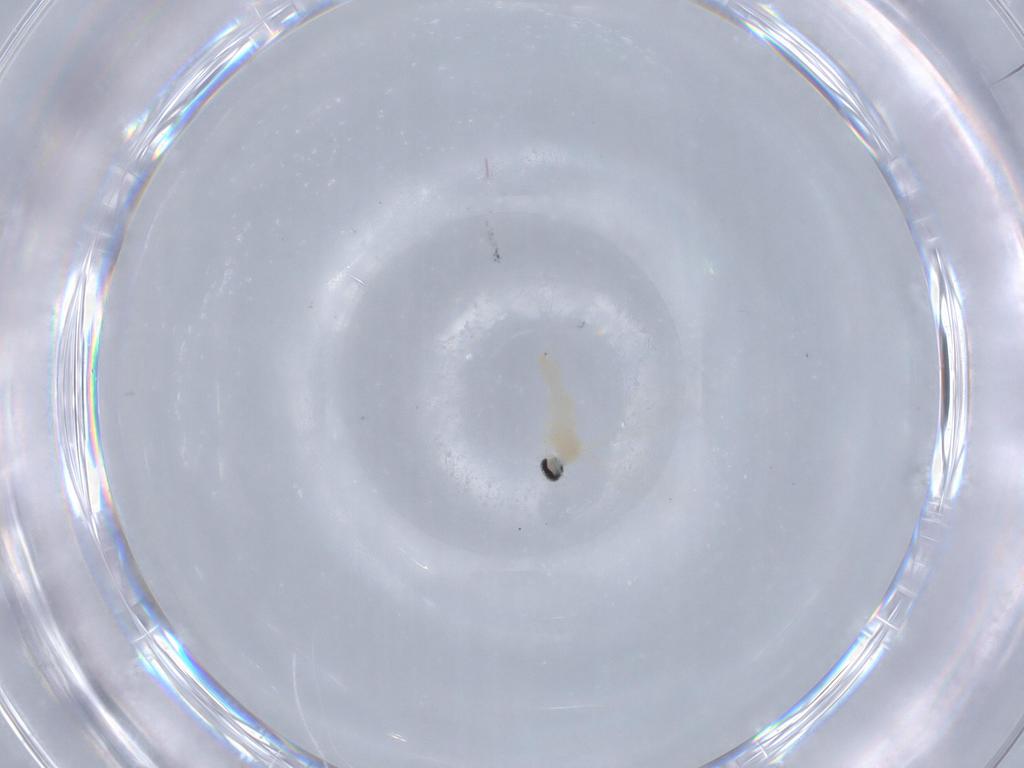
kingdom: Animalia
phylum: Arthropoda
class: Insecta
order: Diptera
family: Cecidomyiidae
